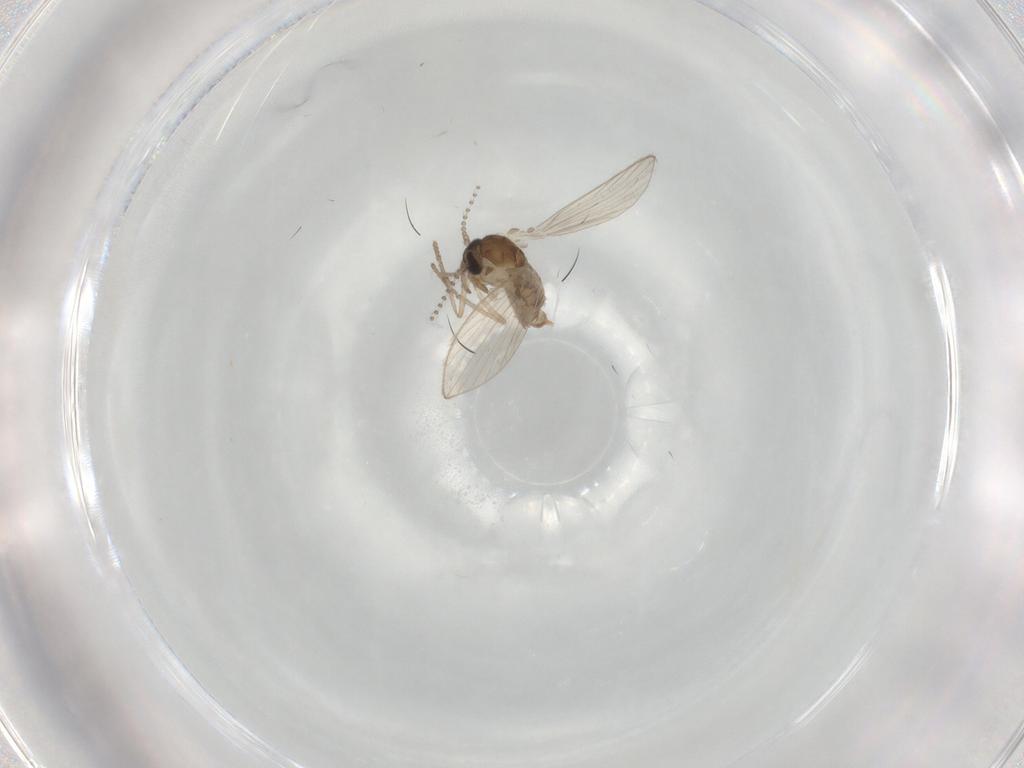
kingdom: Animalia
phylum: Arthropoda
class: Insecta
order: Diptera
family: Psychodidae
